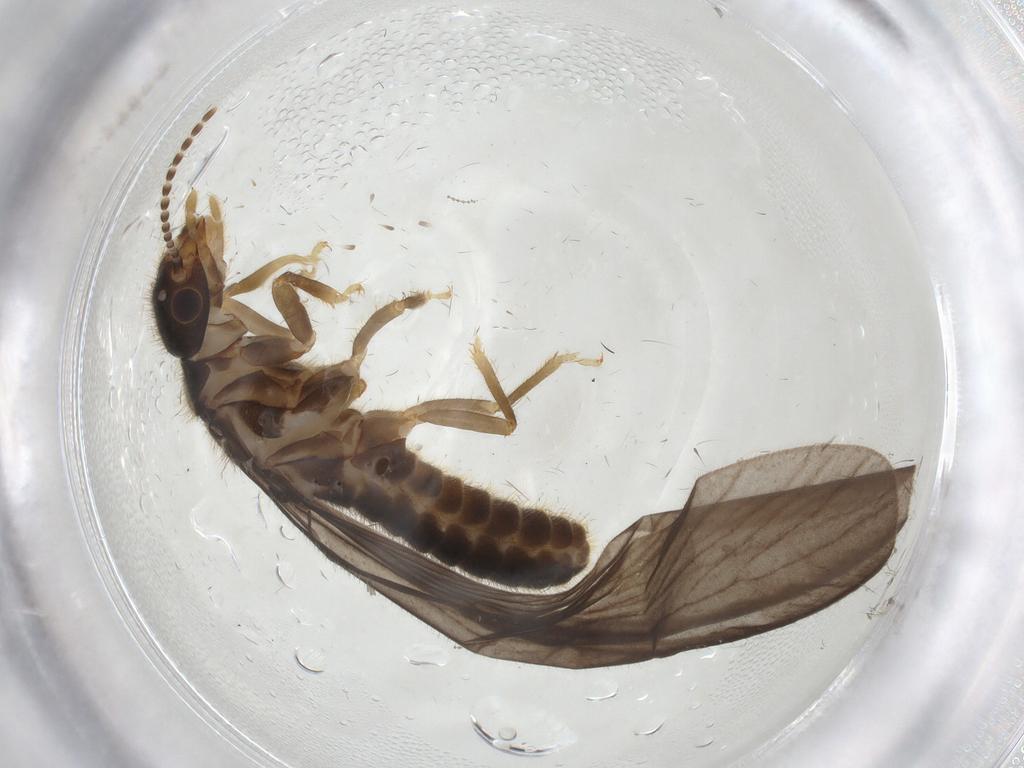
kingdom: Animalia
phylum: Arthropoda
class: Insecta
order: Blattodea
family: Termitidae
